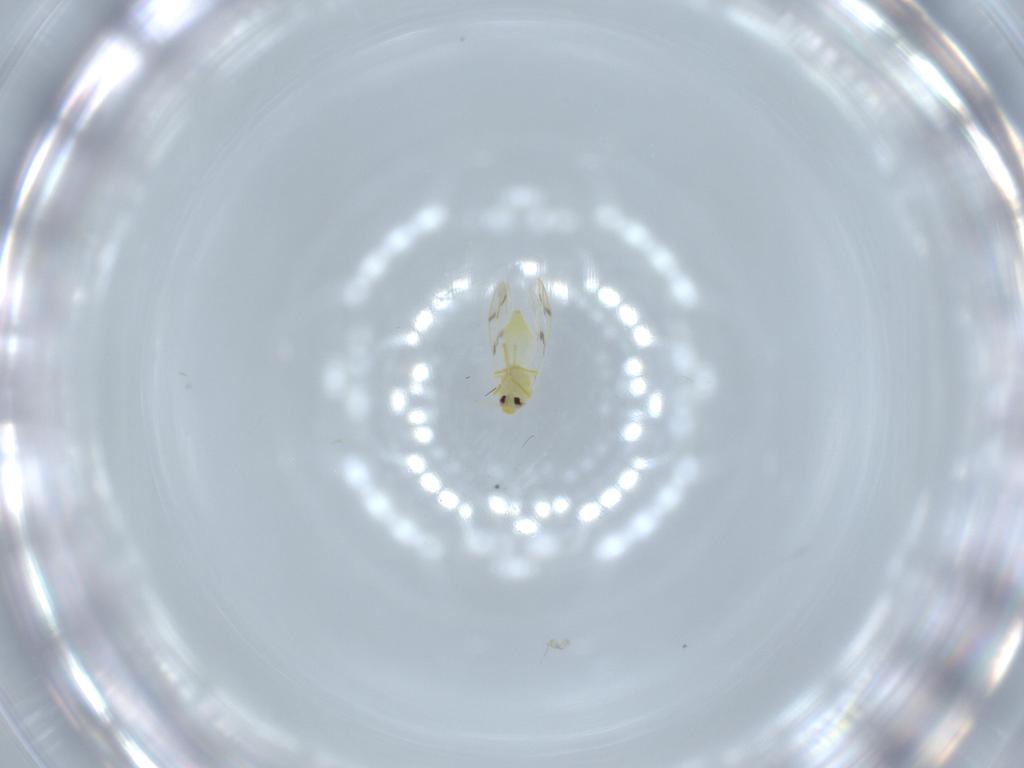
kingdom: Animalia
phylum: Arthropoda
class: Insecta
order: Hemiptera
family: Aleyrodidae
